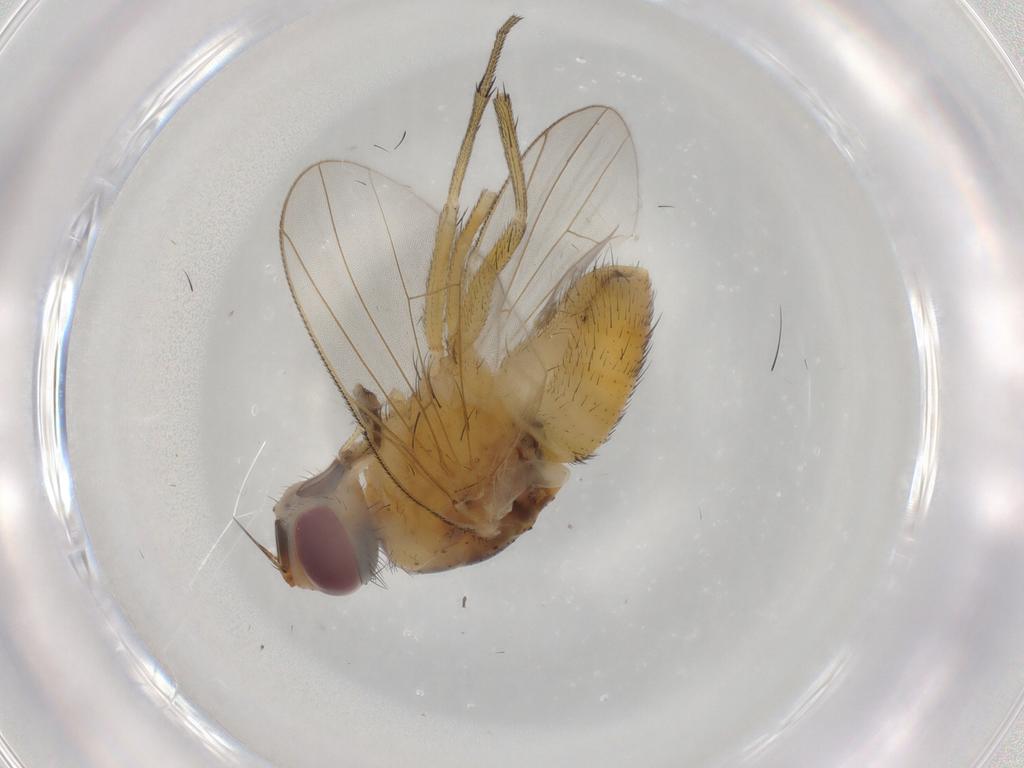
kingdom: Animalia
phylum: Arthropoda
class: Insecta
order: Diptera
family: Muscidae
